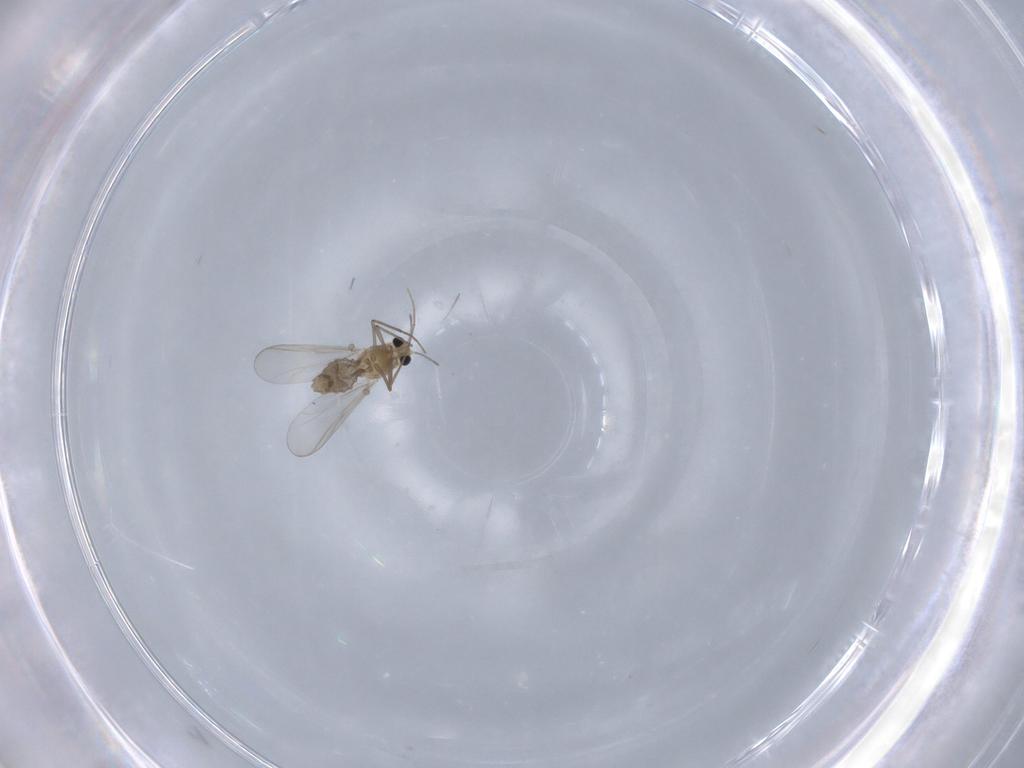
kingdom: Animalia
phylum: Arthropoda
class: Insecta
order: Diptera
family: Chironomidae
